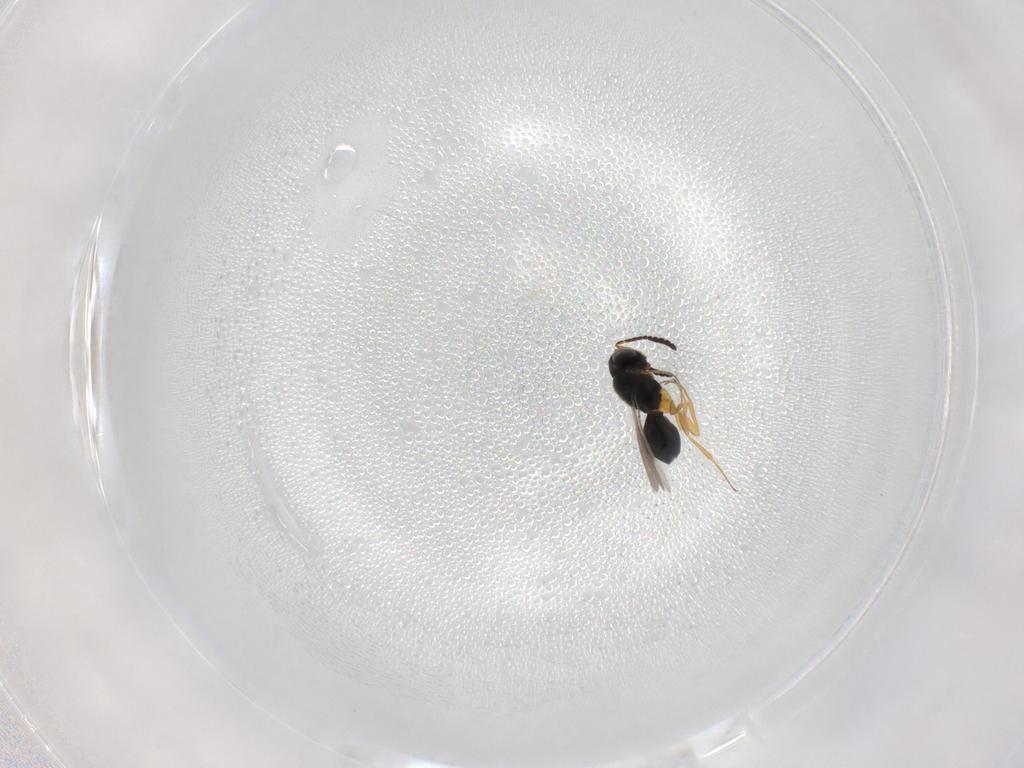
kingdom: Animalia
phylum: Arthropoda
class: Insecta
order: Hymenoptera
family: Scelionidae
